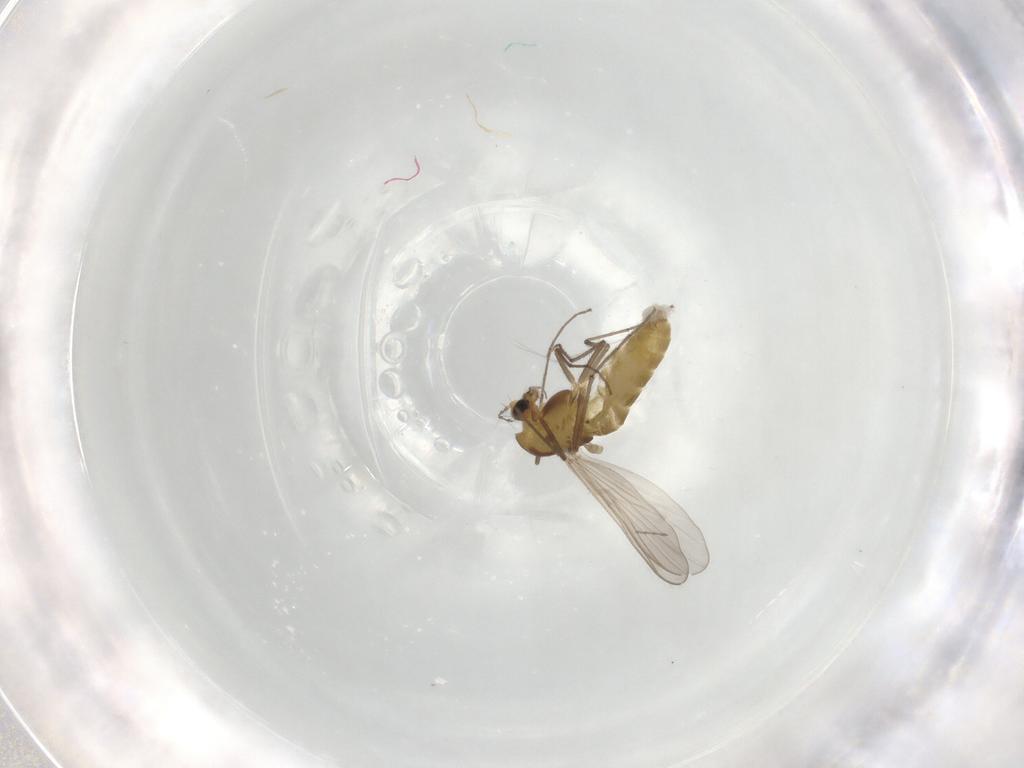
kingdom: Animalia
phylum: Arthropoda
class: Insecta
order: Diptera
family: Chironomidae
